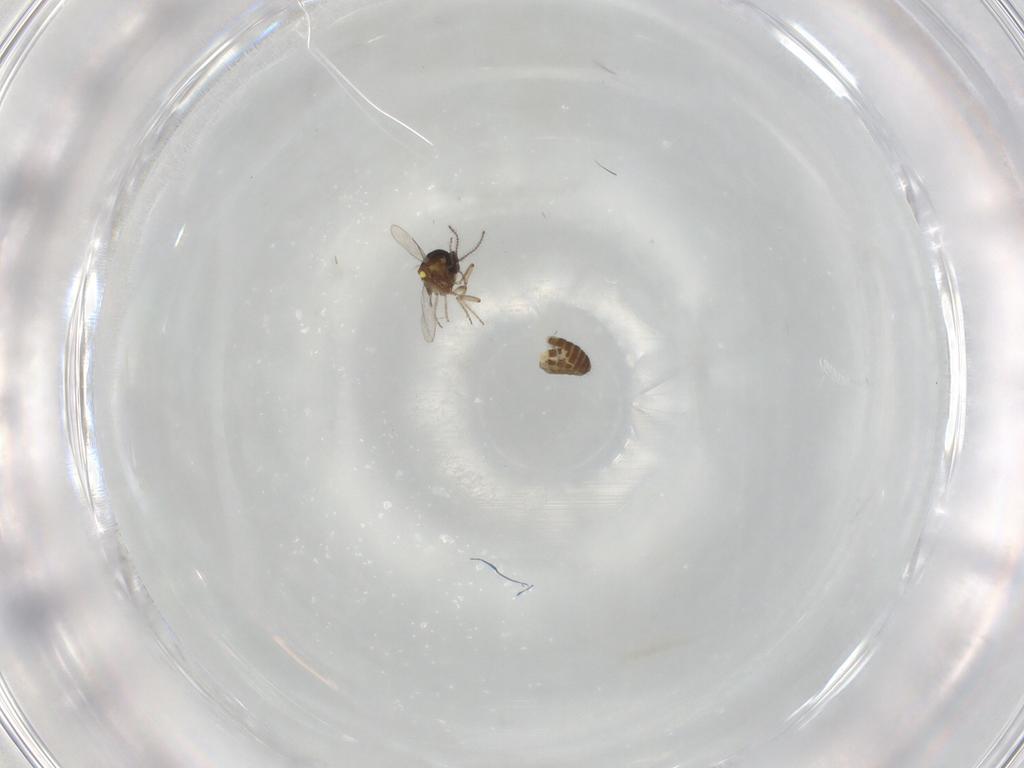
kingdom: Animalia
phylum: Arthropoda
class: Insecta
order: Diptera
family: Ceratopogonidae
